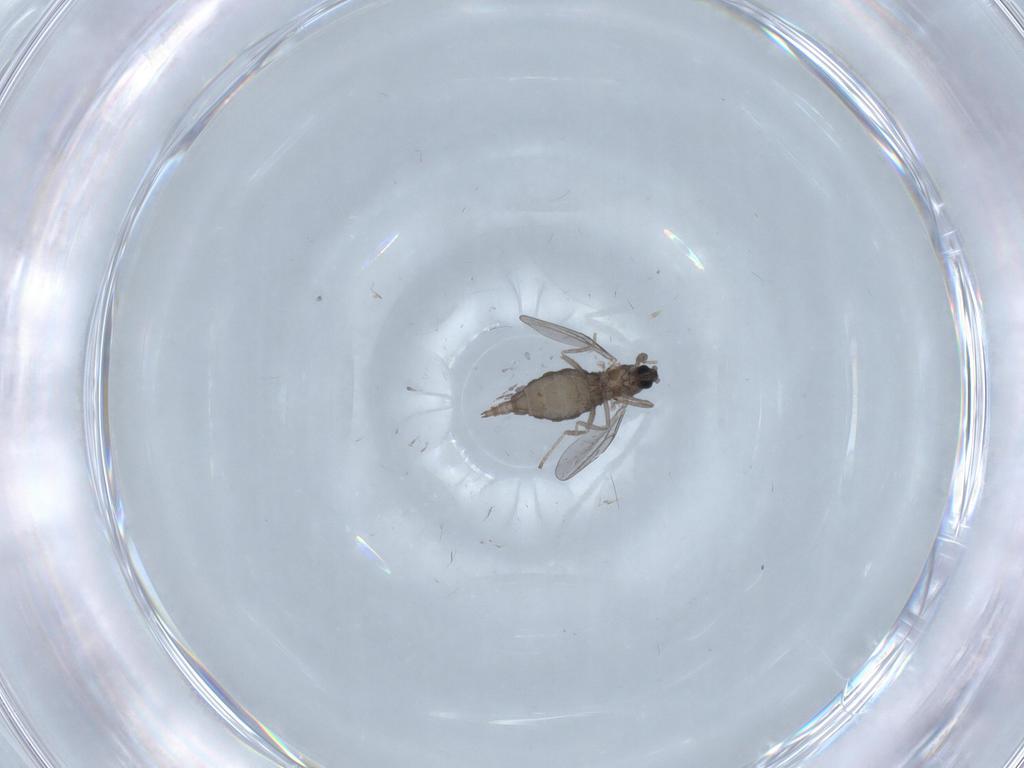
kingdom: Animalia
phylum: Arthropoda
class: Insecta
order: Diptera
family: Cecidomyiidae
